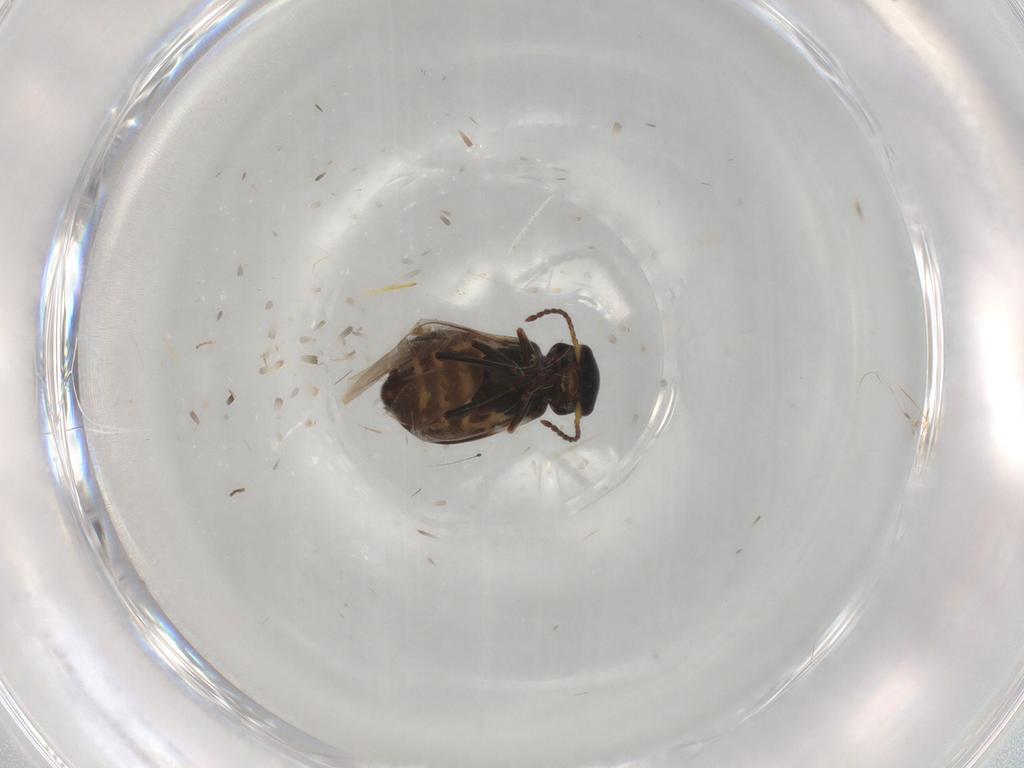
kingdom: Animalia
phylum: Arthropoda
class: Insecta
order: Coleoptera
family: Melyridae
